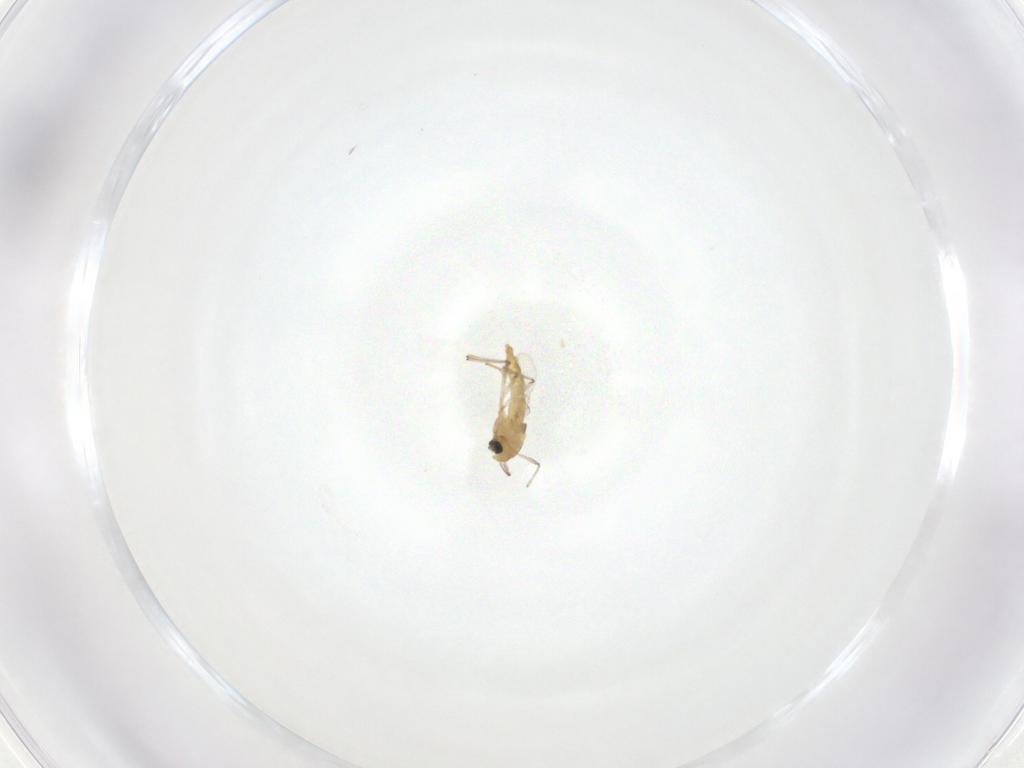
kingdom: Animalia
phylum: Arthropoda
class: Insecta
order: Diptera
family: Chironomidae
